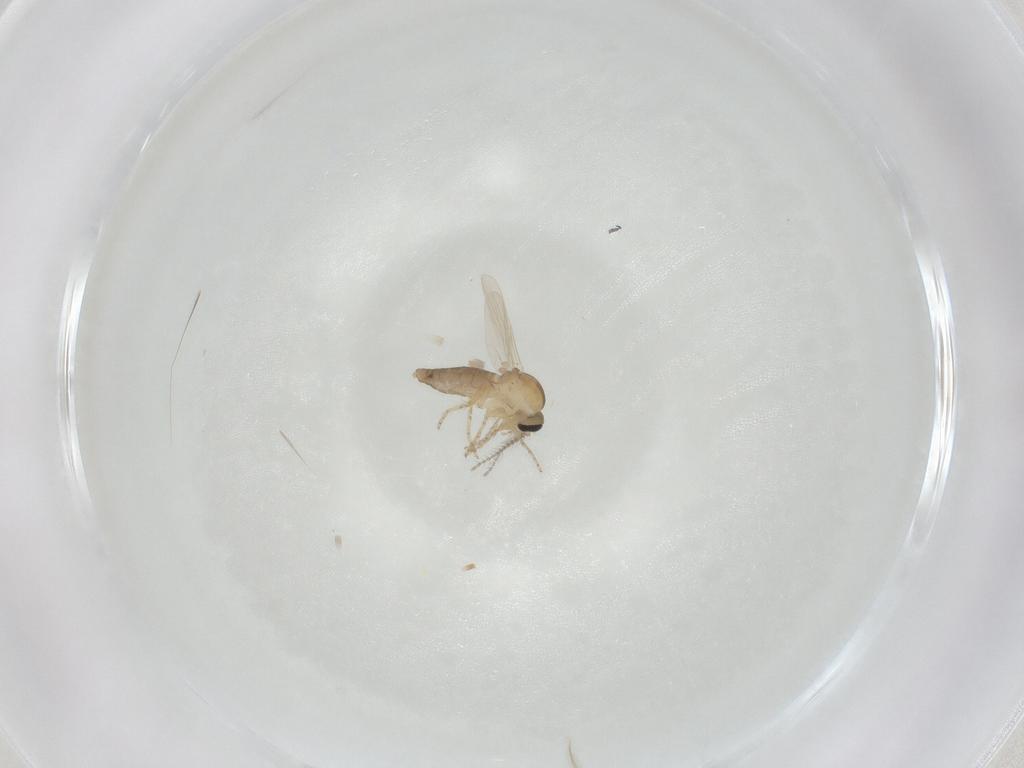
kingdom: Animalia
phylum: Arthropoda
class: Insecta
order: Diptera
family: Ceratopogonidae
